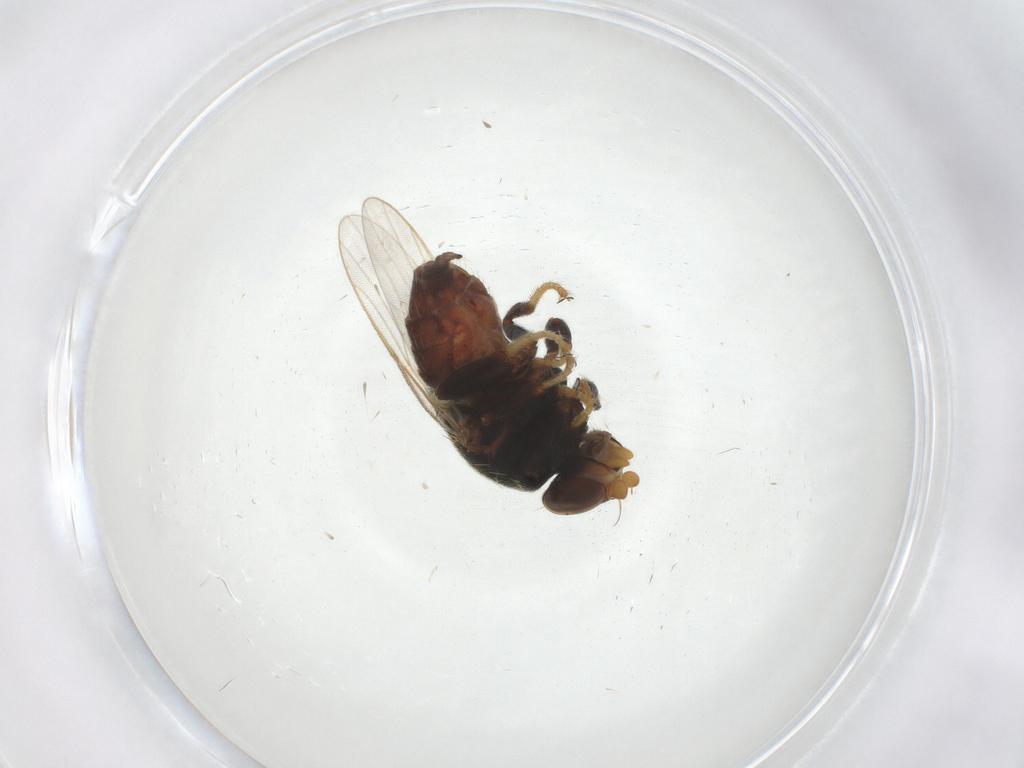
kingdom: Animalia
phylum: Arthropoda
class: Insecta
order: Diptera
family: Chloropidae
